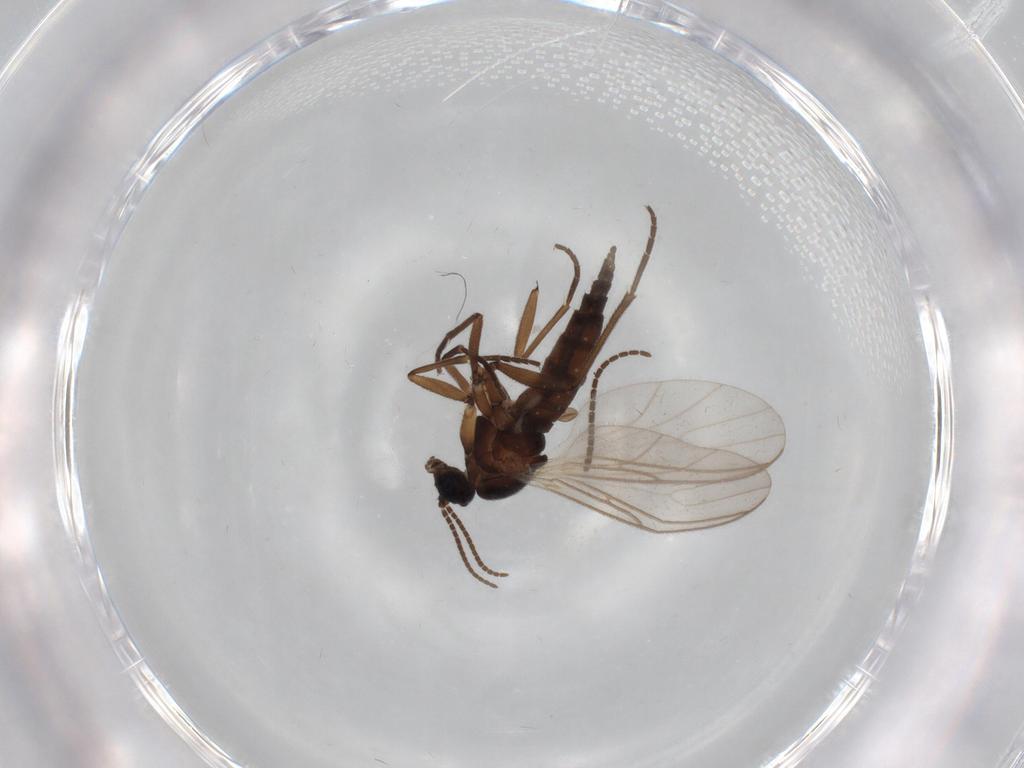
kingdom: Animalia
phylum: Arthropoda
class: Insecta
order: Diptera
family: Sciaridae
